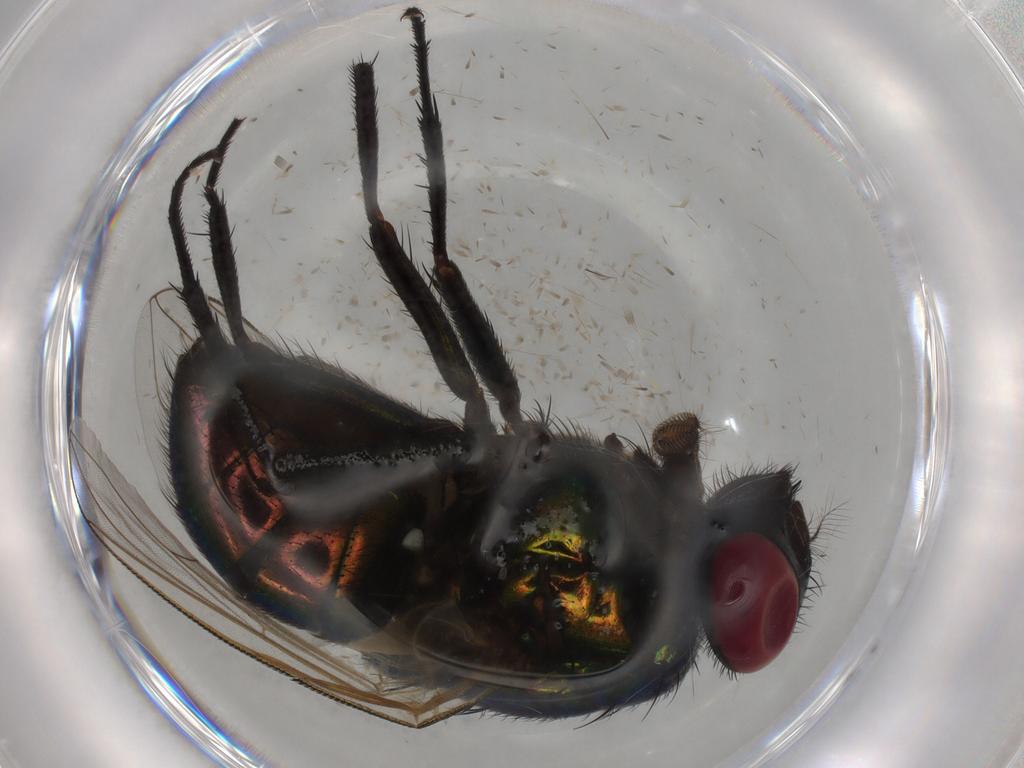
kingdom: Animalia
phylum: Arthropoda
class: Insecta
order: Diptera
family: Muscidae
